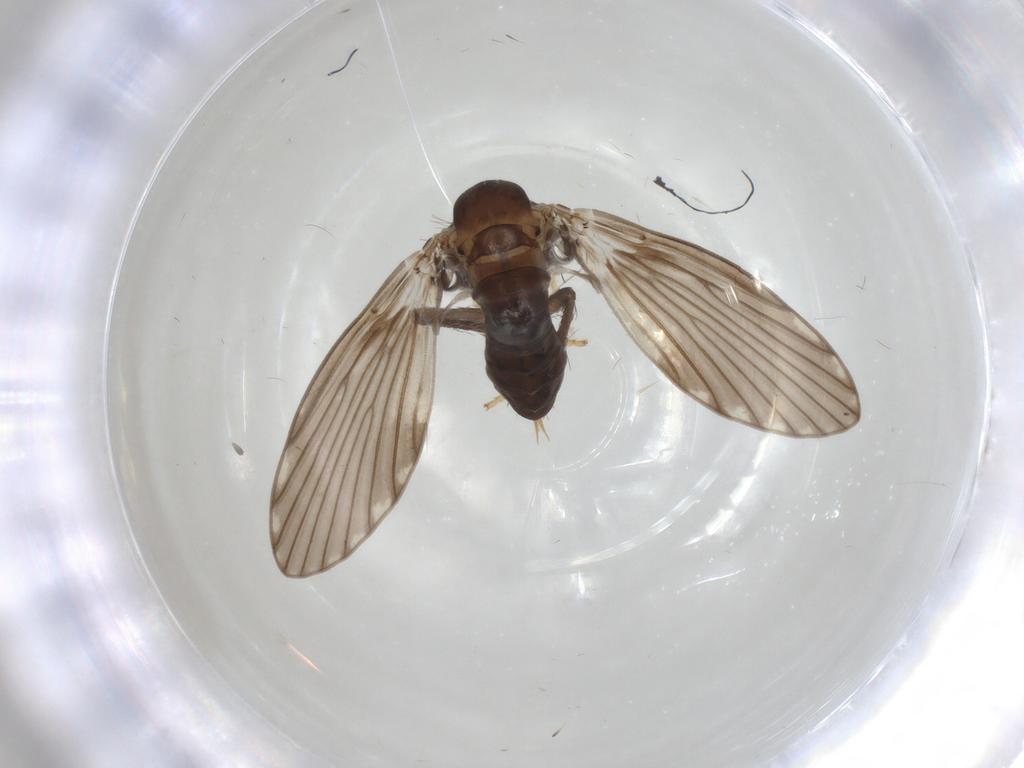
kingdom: Animalia
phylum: Arthropoda
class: Insecta
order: Diptera
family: Psychodidae
